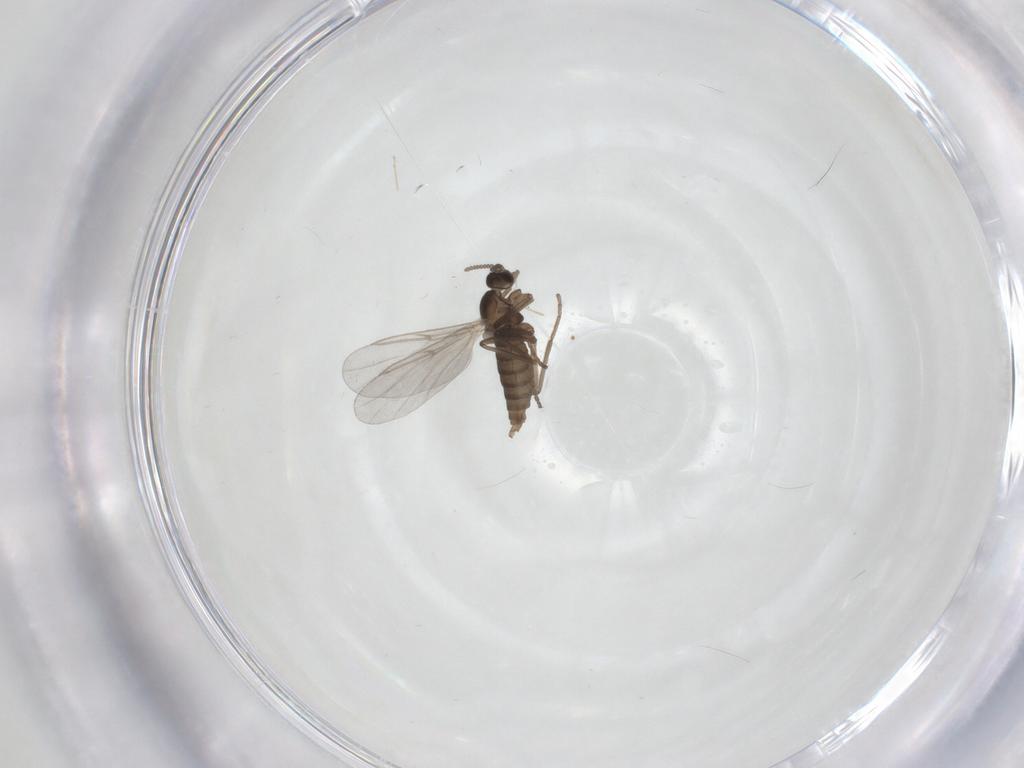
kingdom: Animalia
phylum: Arthropoda
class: Insecta
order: Diptera
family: Cecidomyiidae
